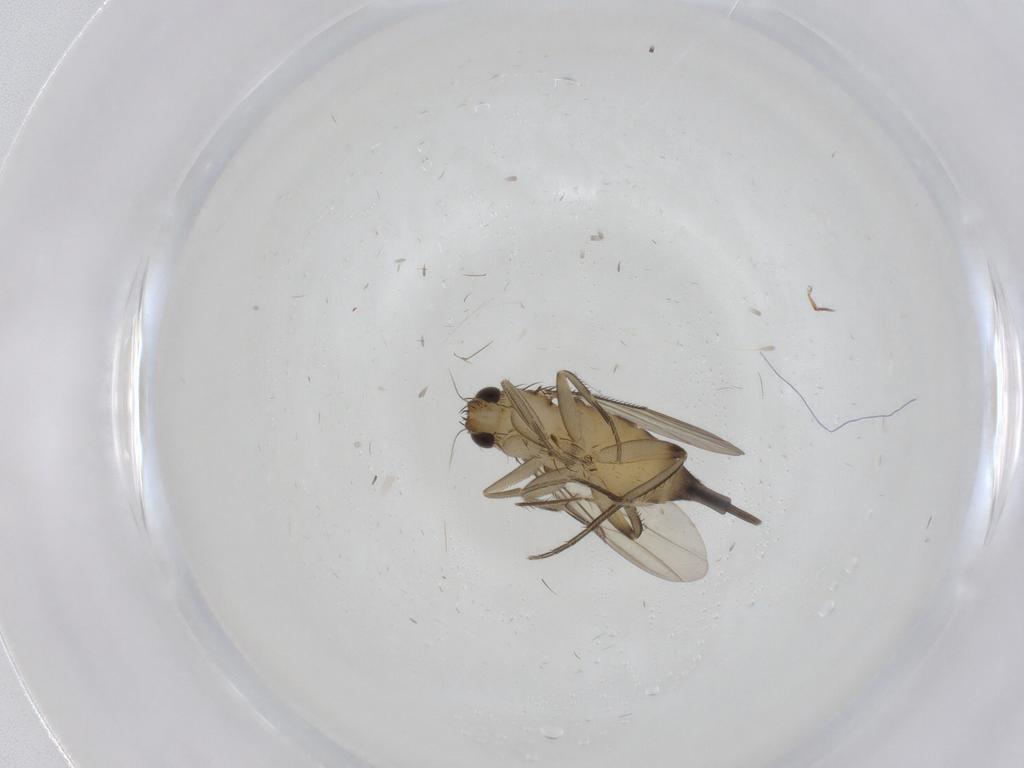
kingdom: Animalia
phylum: Arthropoda
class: Insecta
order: Diptera
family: Phoridae
